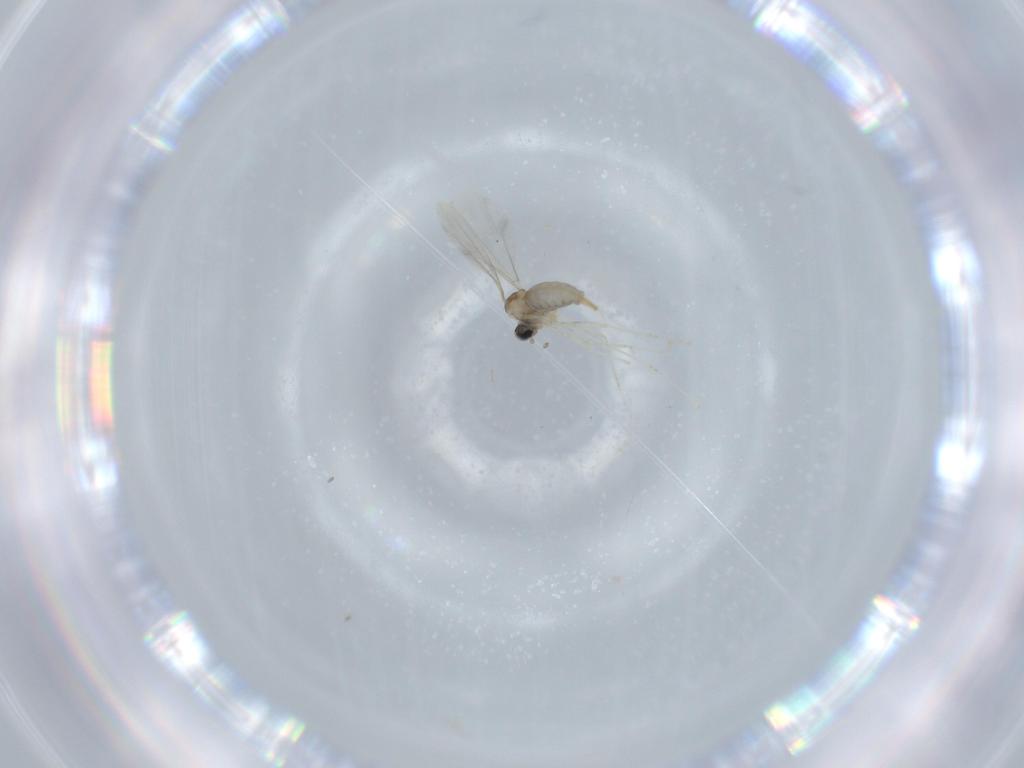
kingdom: Animalia
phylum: Arthropoda
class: Insecta
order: Diptera
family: Cecidomyiidae
